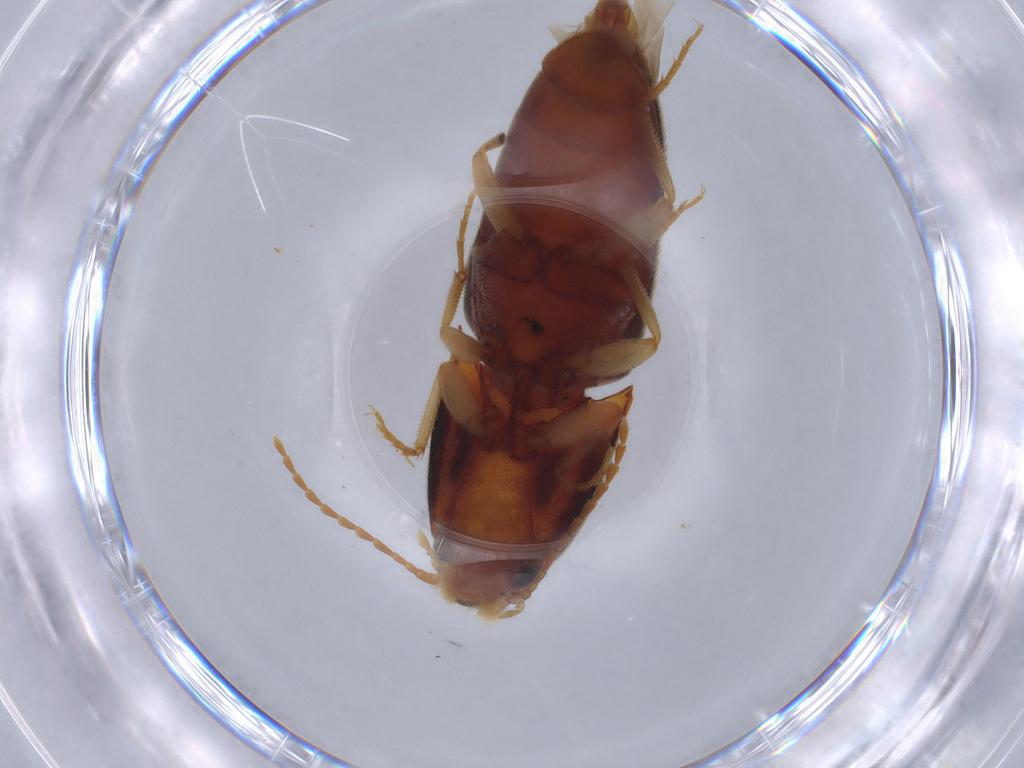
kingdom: Animalia
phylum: Arthropoda
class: Insecta
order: Coleoptera
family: Elateridae
